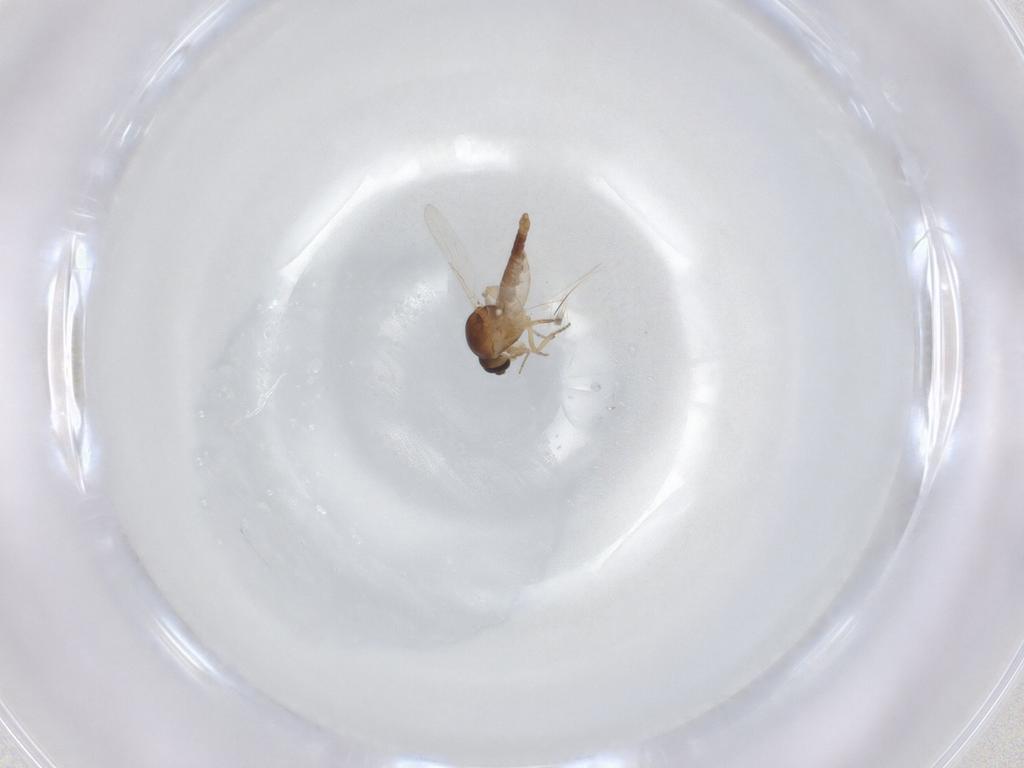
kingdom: Animalia
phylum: Arthropoda
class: Insecta
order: Diptera
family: Ceratopogonidae
